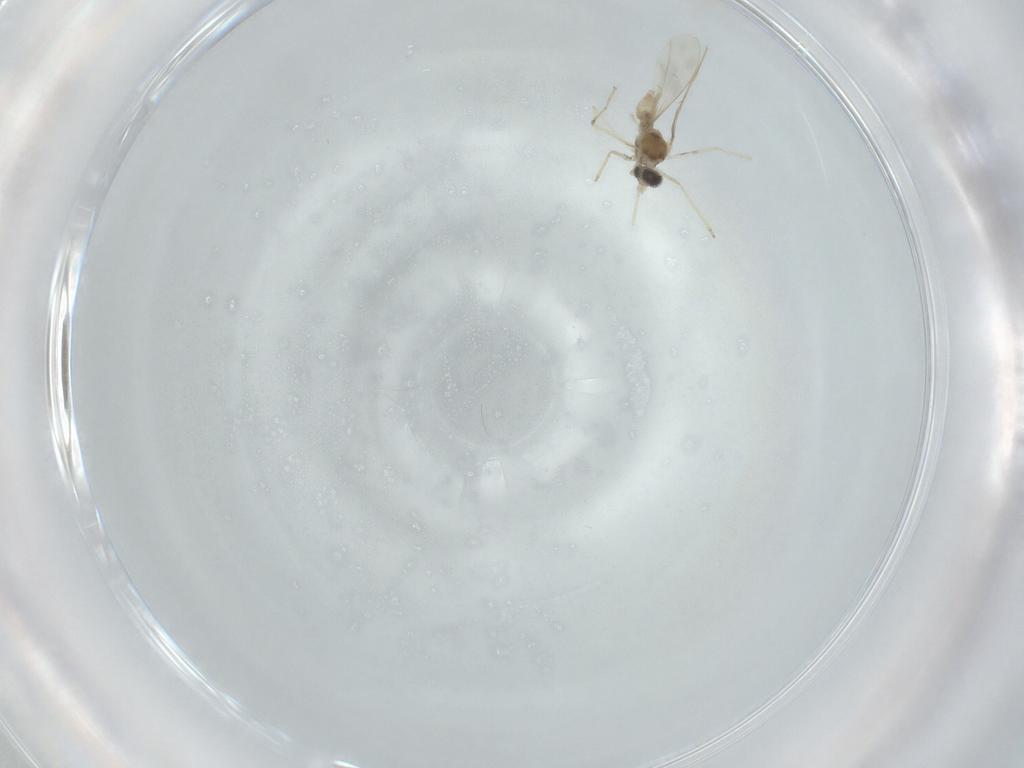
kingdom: Animalia
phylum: Arthropoda
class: Insecta
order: Diptera
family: Cecidomyiidae
